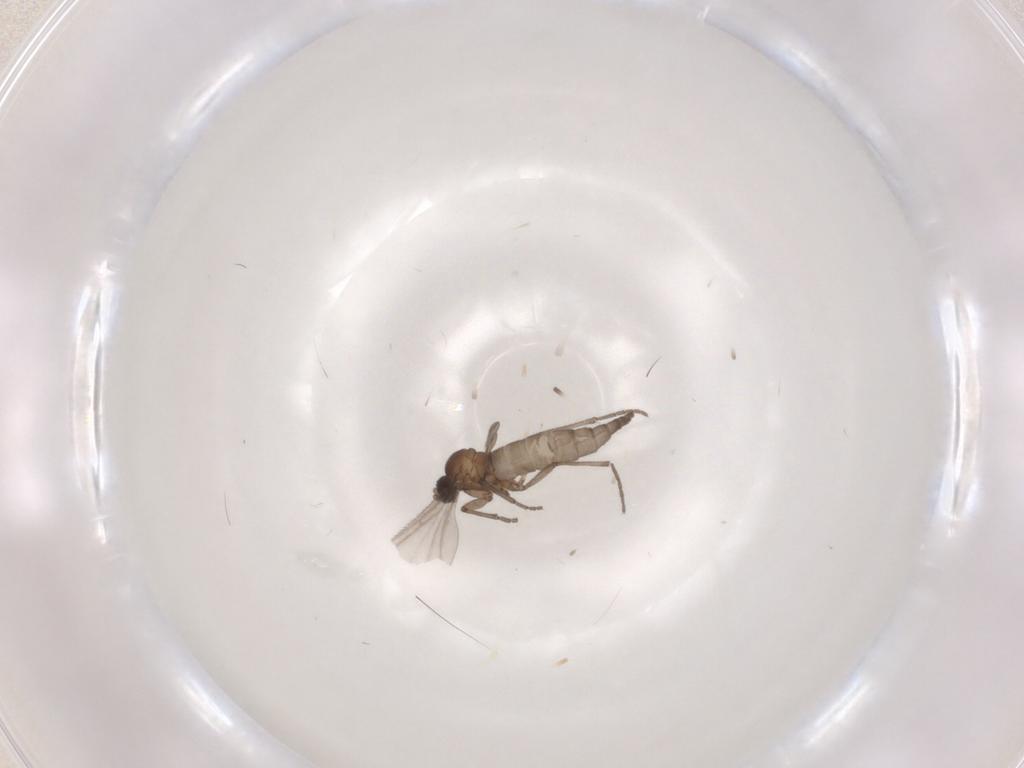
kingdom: Animalia
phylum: Arthropoda
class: Insecta
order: Diptera
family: Sciaridae
